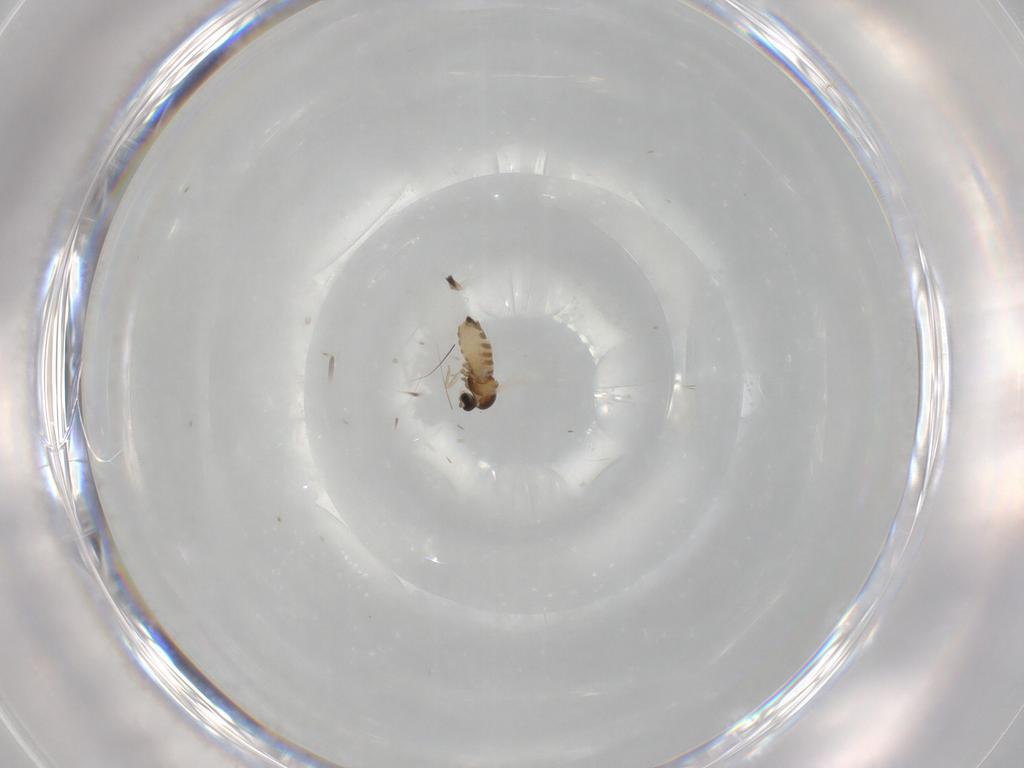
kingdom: Animalia
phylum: Arthropoda
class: Insecta
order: Diptera
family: Cecidomyiidae
